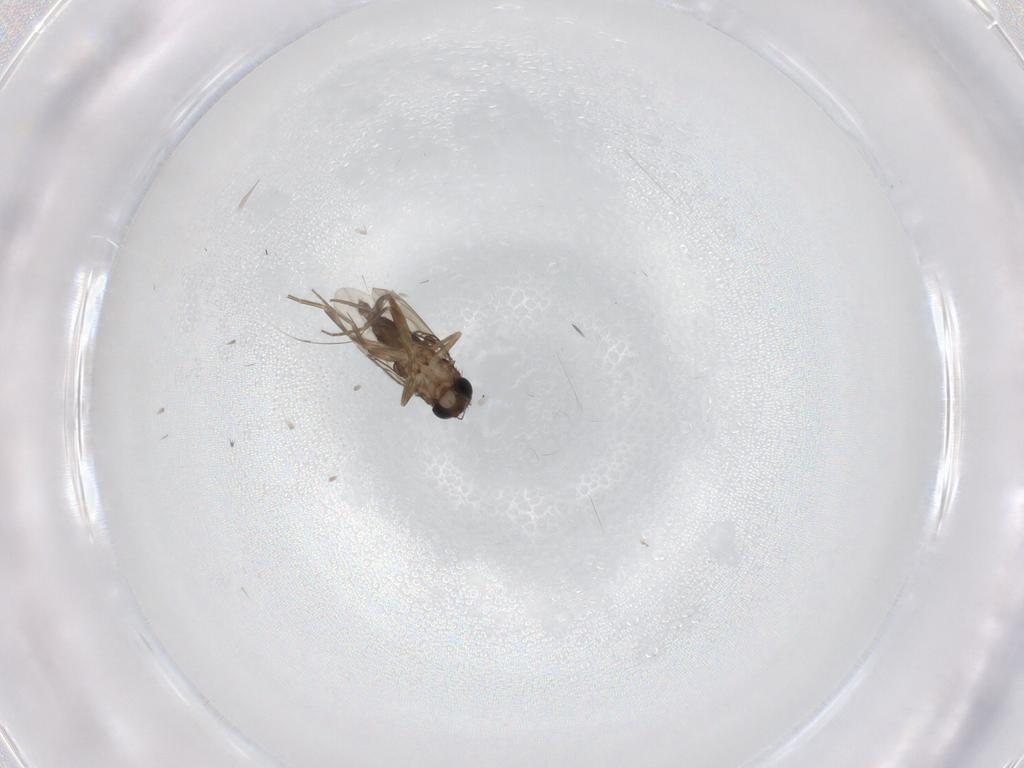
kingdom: Animalia
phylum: Arthropoda
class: Insecta
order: Diptera
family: Phoridae
